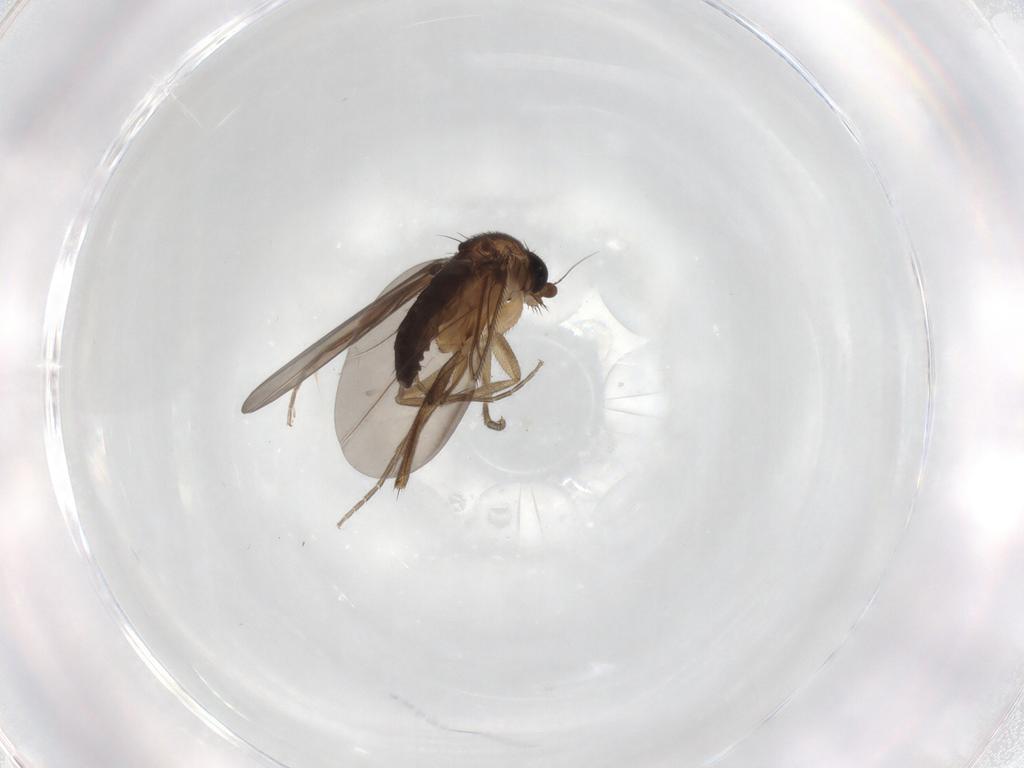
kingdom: Animalia
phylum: Arthropoda
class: Insecta
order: Diptera
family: Phoridae
